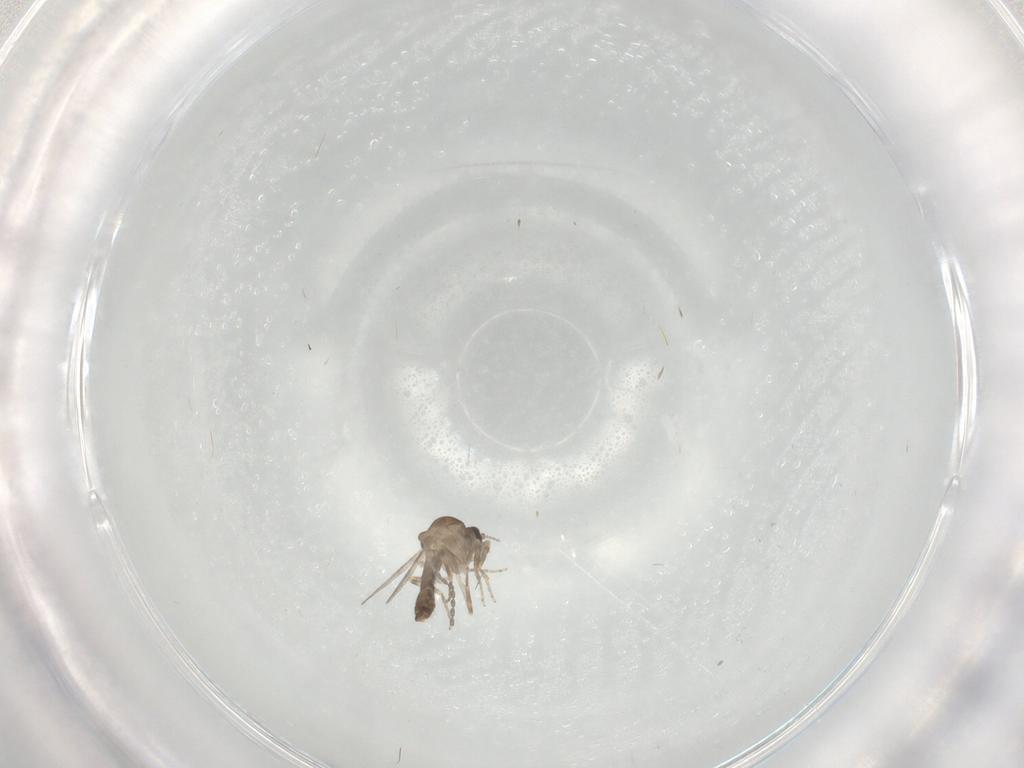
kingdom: Animalia
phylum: Arthropoda
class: Insecta
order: Diptera
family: Ceratopogonidae
